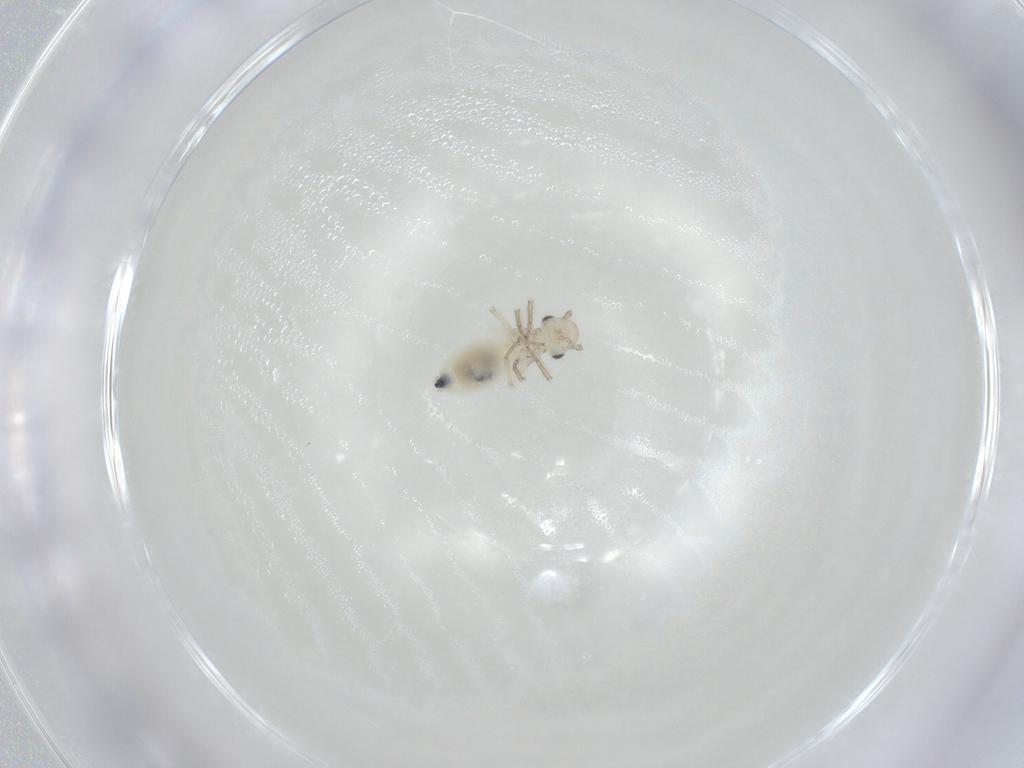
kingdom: Animalia
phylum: Arthropoda
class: Insecta
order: Psocodea
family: Caeciliusidae
